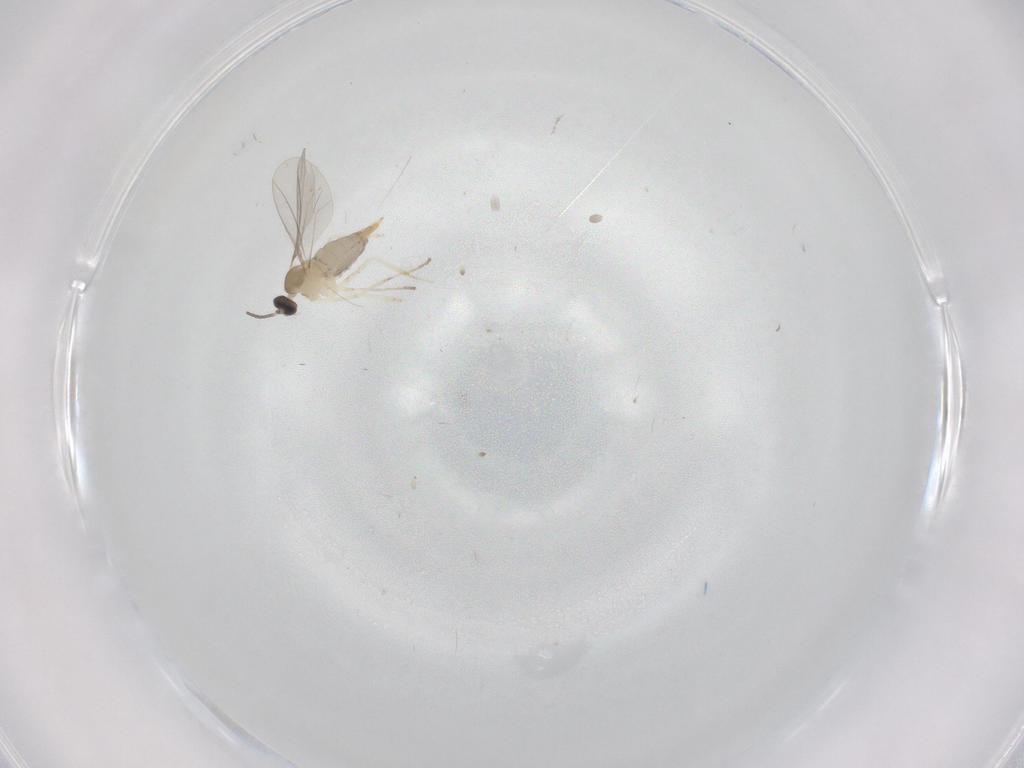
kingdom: Animalia
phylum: Arthropoda
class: Insecta
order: Diptera
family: Cecidomyiidae
